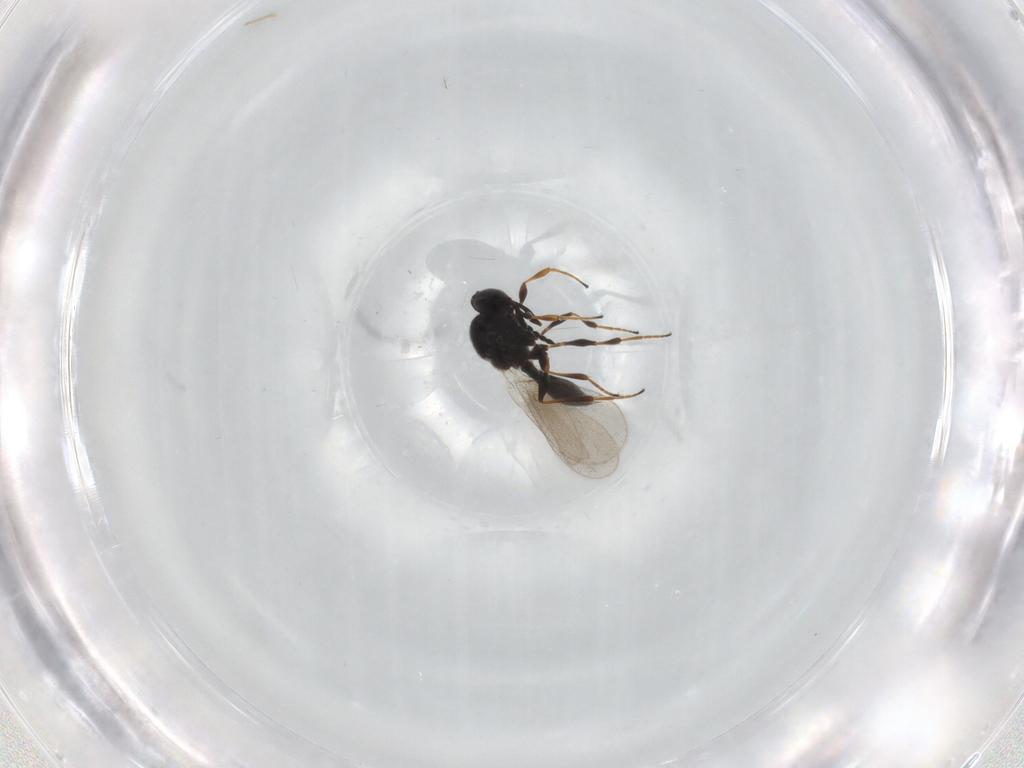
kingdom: Animalia
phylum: Arthropoda
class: Insecta
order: Hymenoptera
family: Platygastridae
